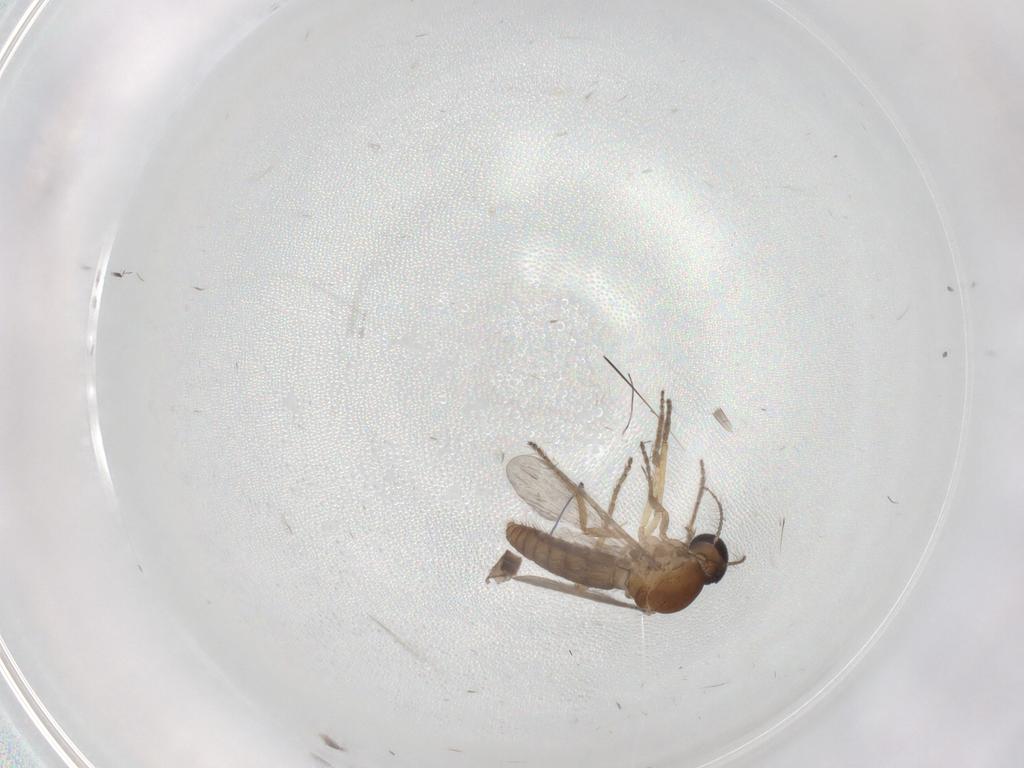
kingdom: Animalia
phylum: Arthropoda
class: Insecta
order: Diptera
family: Ceratopogonidae
